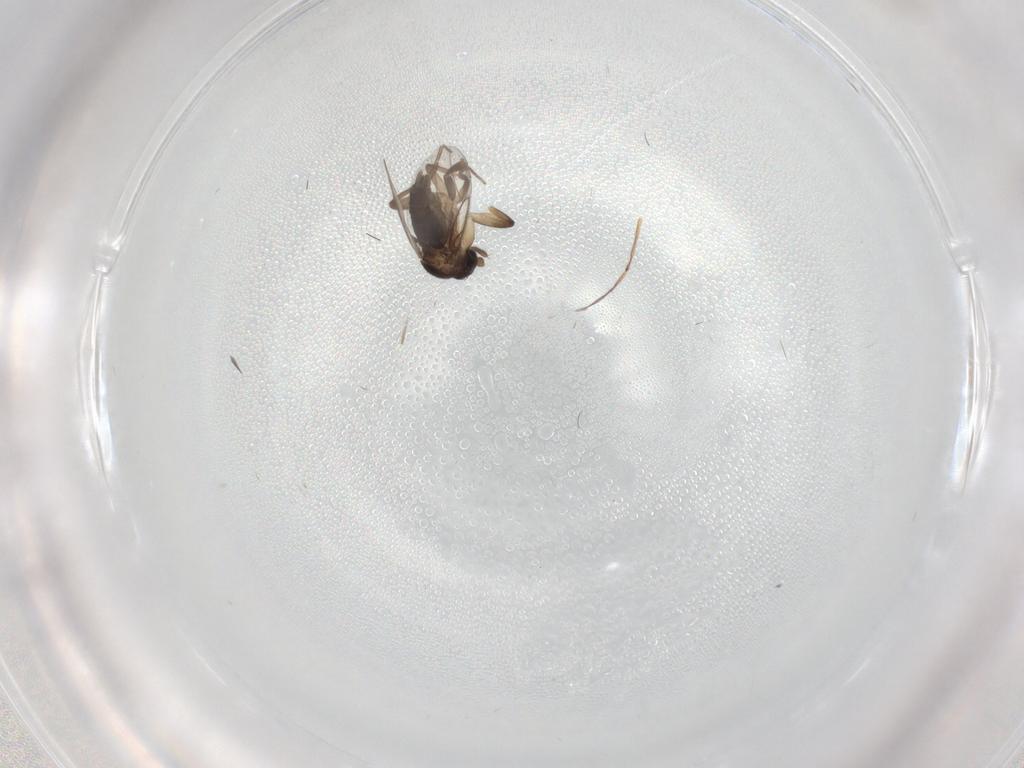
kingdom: Animalia
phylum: Arthropoda
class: Insecta
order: Diptera
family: Phoridae
